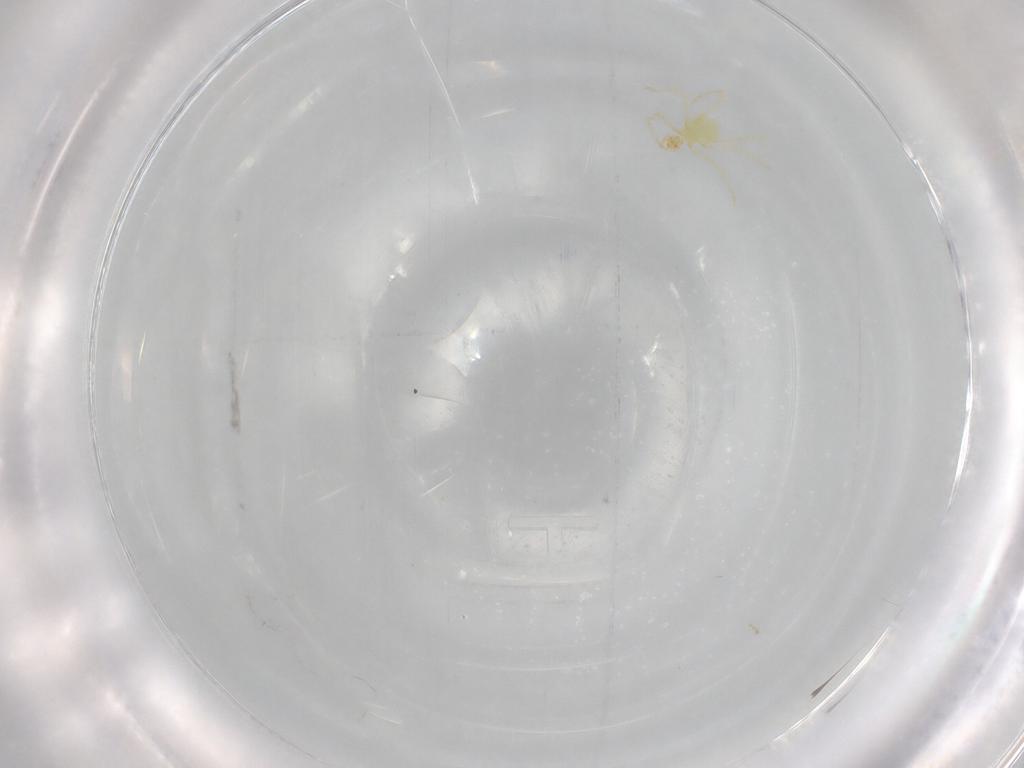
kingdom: Animalia
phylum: Arthropoda
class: Arachnida
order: Trombidiformes
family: Erythraeidae
